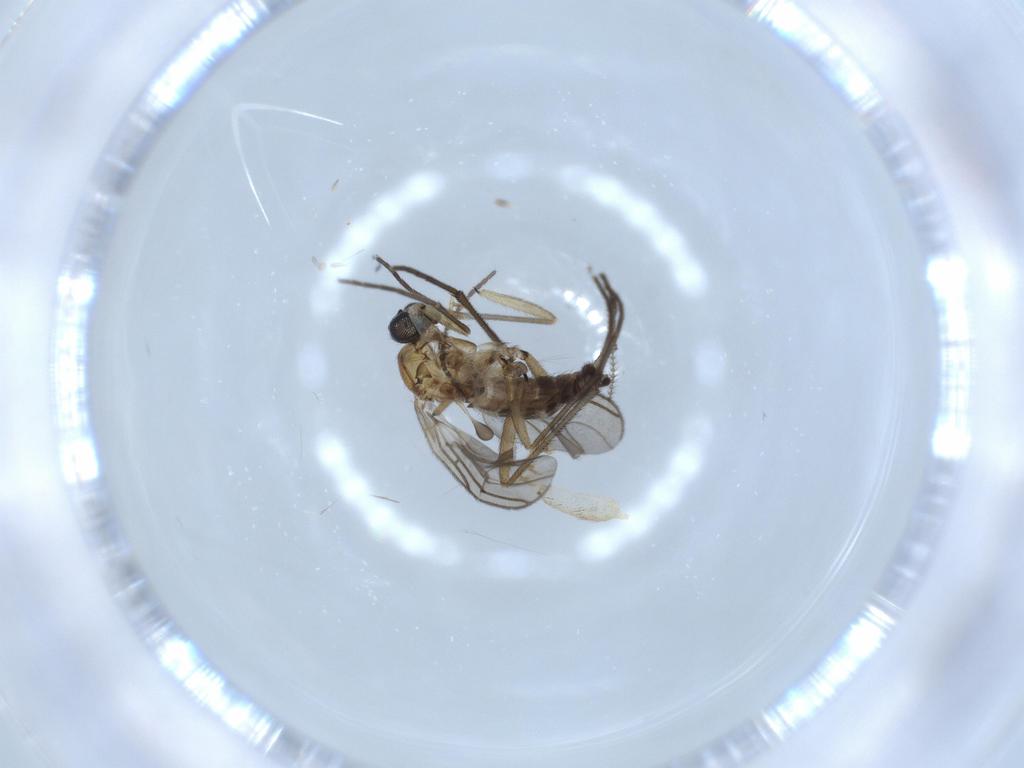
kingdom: Animalia
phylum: Arthropoda
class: Insecta
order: Diptera
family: Sciaridae
